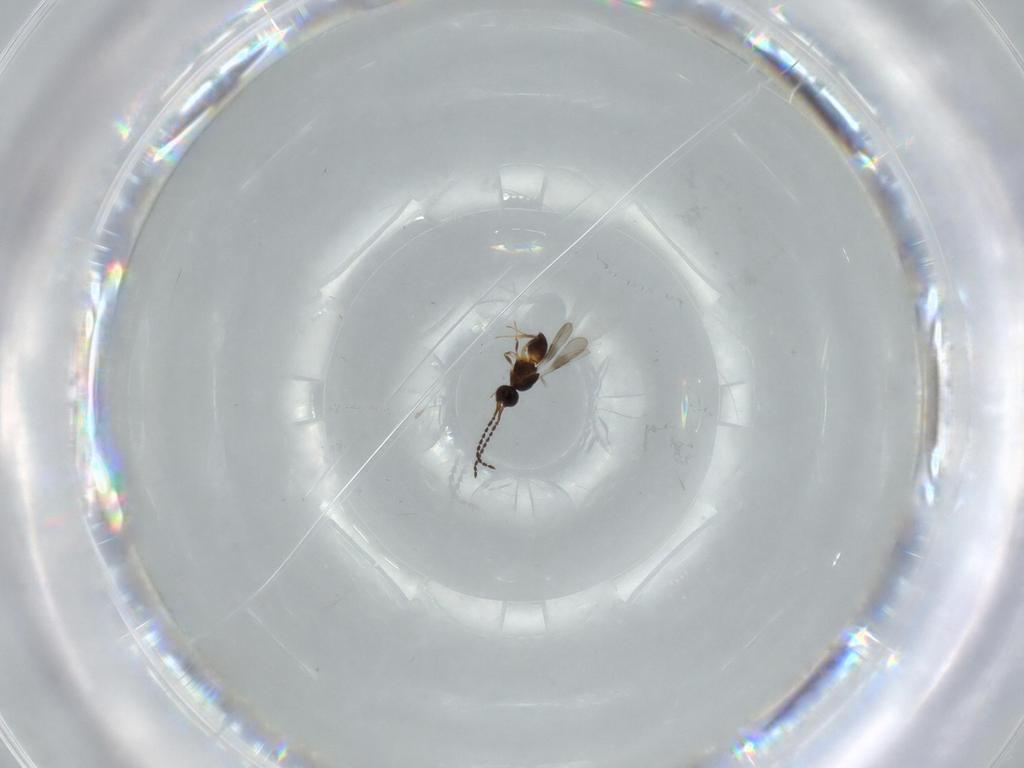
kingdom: Animalia
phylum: Arthropoda
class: Insecta
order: Hymenoptera
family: Ceraphronidae
